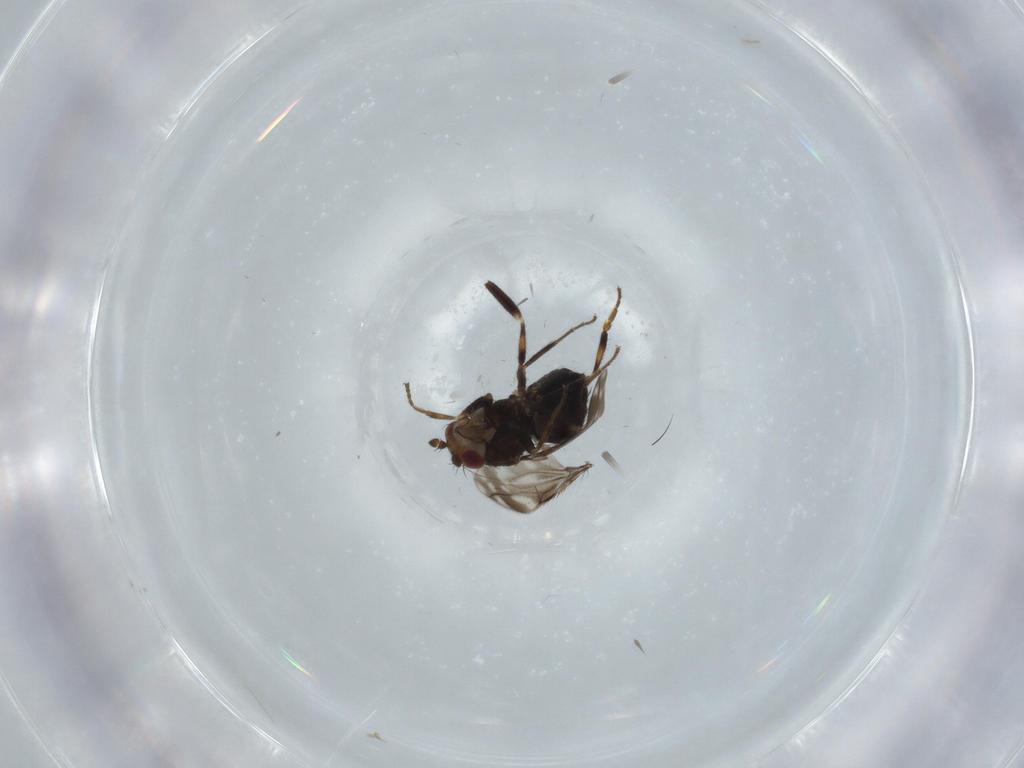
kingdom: Animalia
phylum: Arthropoda
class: Insecta
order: Diptera
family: Sphaeroceridae
